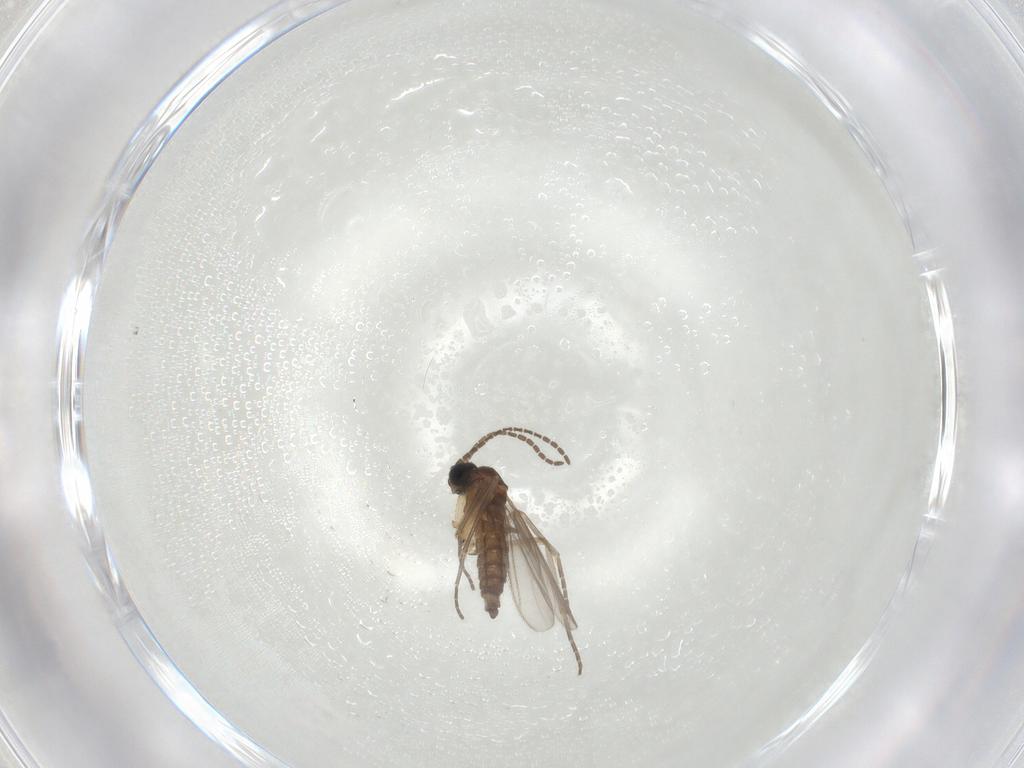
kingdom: Animalia
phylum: Arthropoda
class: Insecta
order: Diptera
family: Sciaridae
